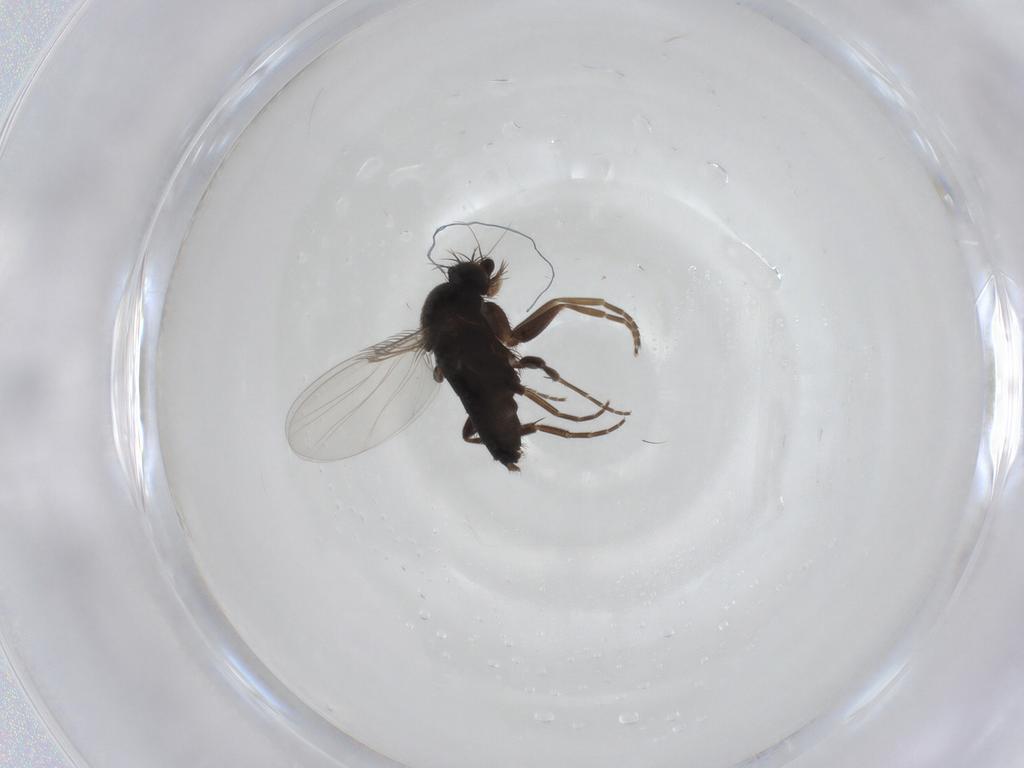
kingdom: Animalia
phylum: Arthropoda
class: Insecta
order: Diptera
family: Phoridae
